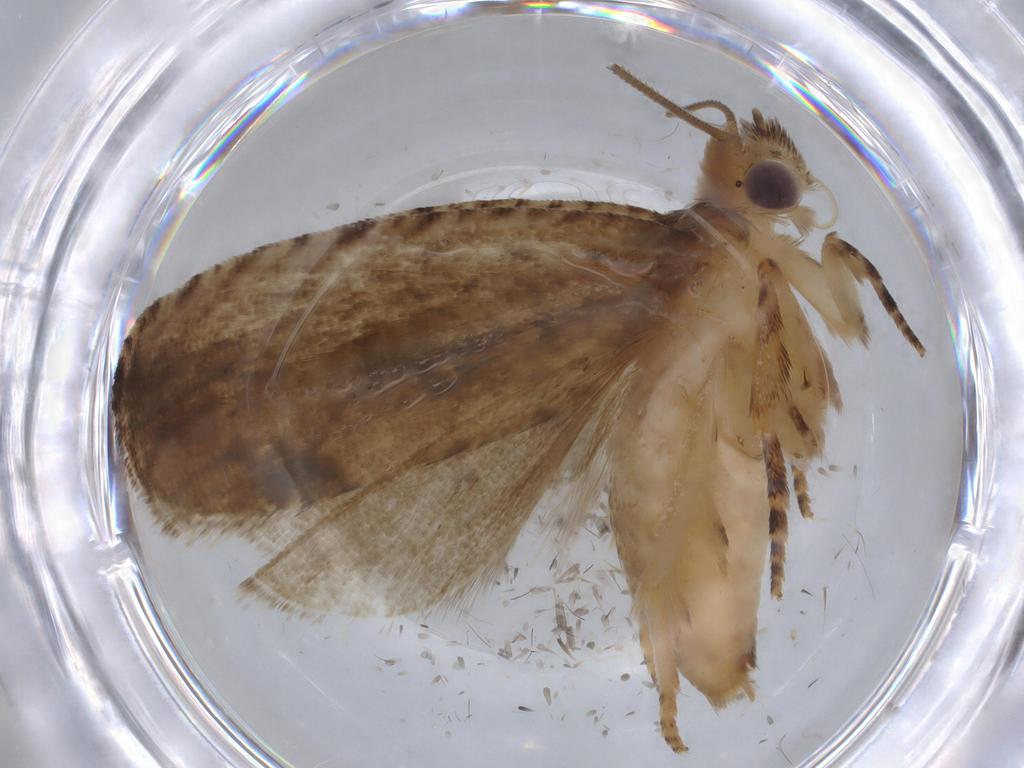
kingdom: Animalia
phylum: Arthropoda
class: Insecta
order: Lepidoptera
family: Tortricidae
